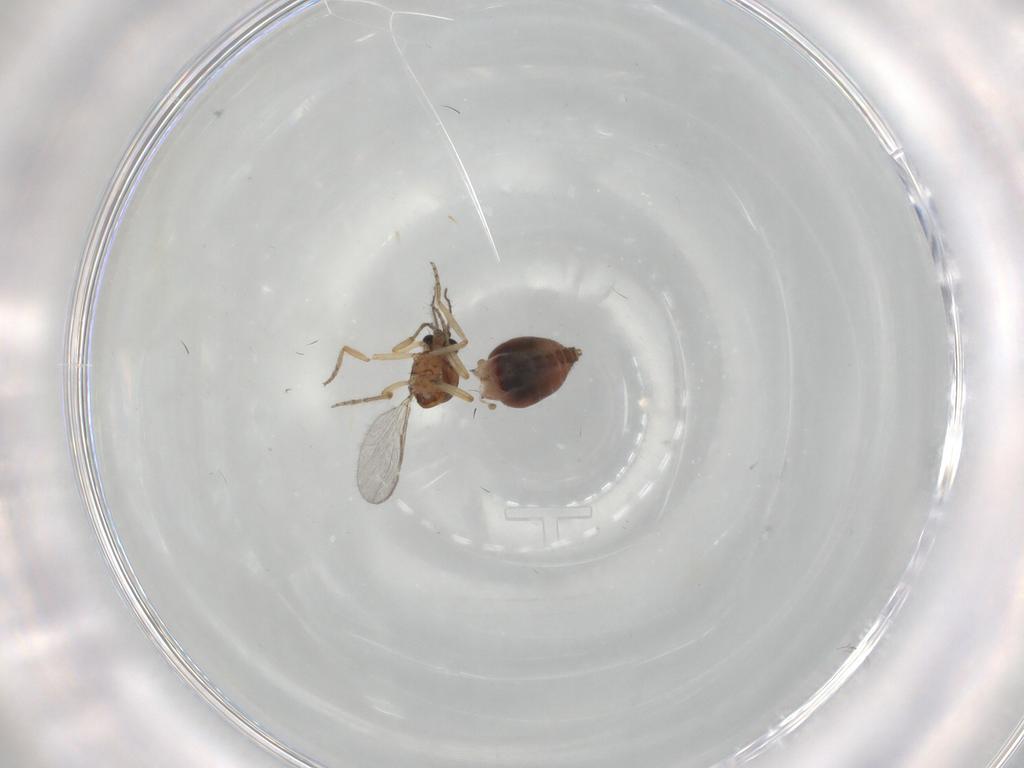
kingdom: Animalia
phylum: Arthropoda
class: Insecta
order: Diptera
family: Ceratopogonidae
